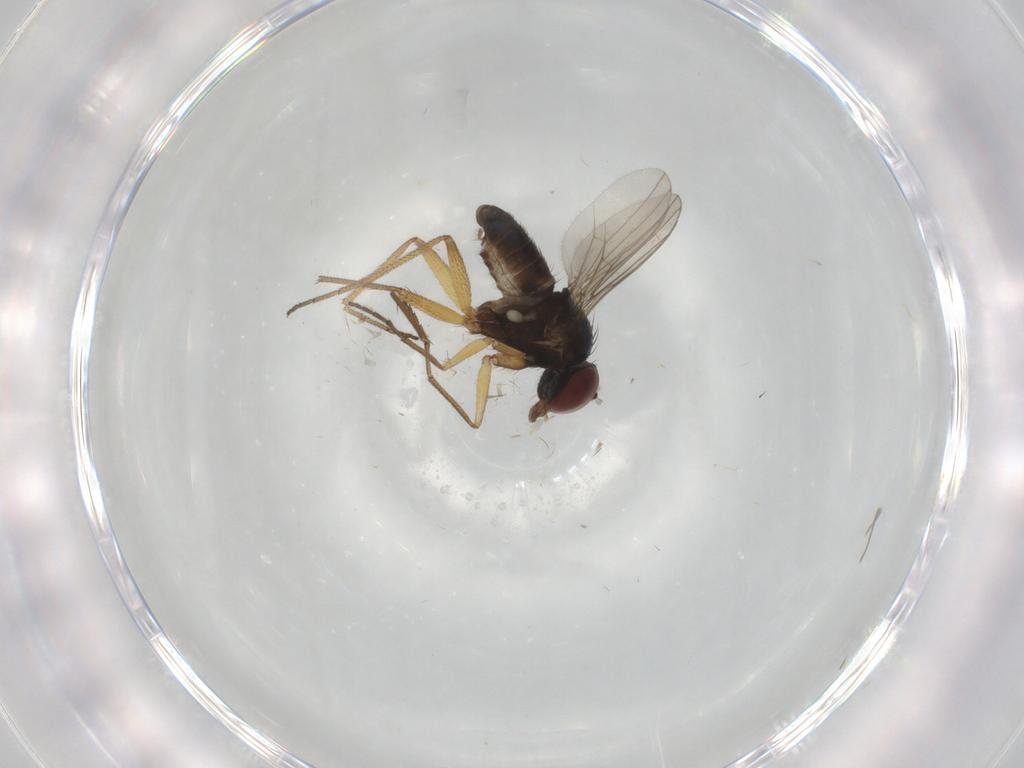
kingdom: Animalia
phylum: Arthropoda
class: Insecta
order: Diptera
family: Dolichopodidae
